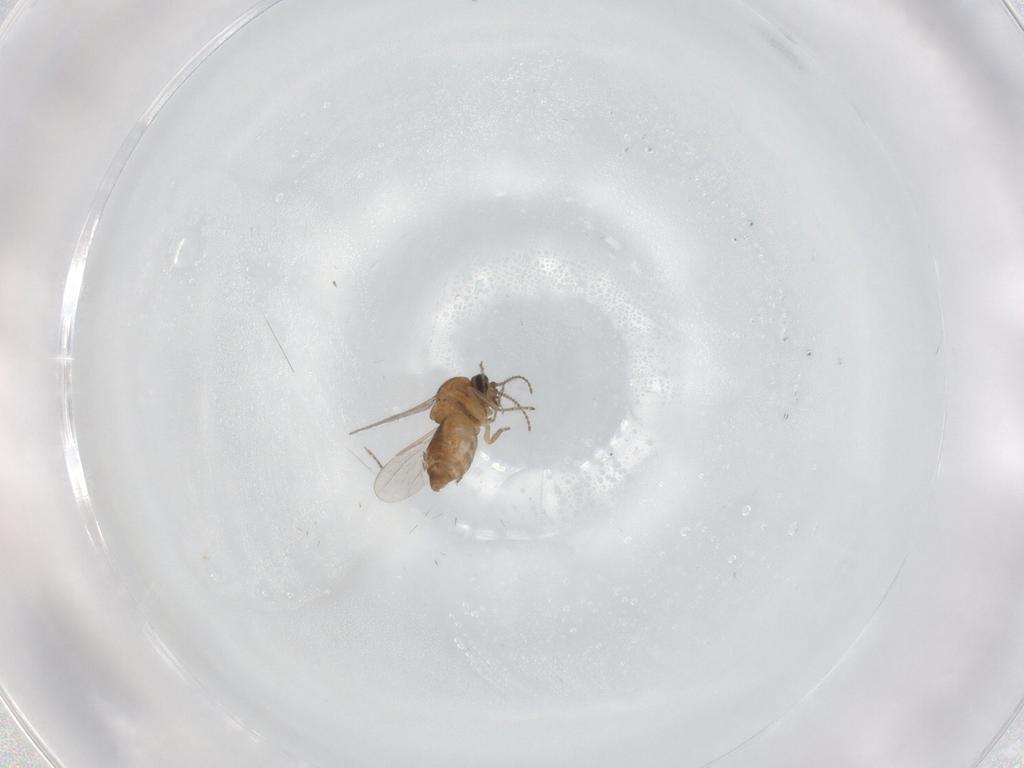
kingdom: Animalia
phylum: Arthropoda
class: Insecta
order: Diptera
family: Ceratopogonidae
